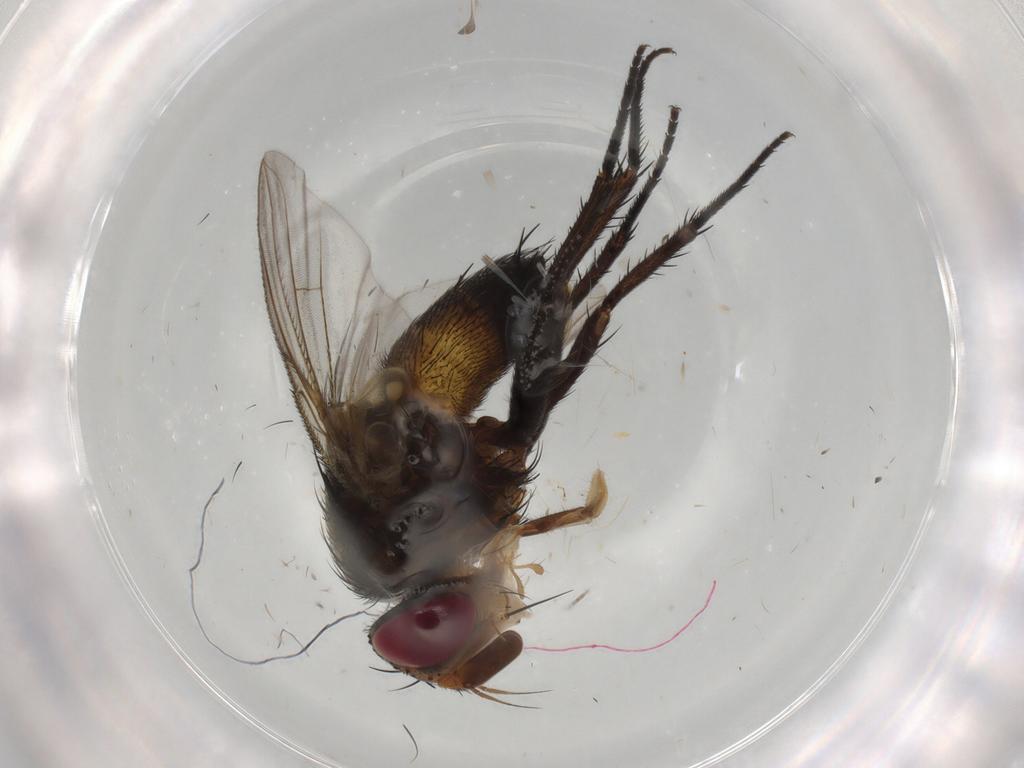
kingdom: Animalia
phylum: Arthropoda
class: Insecta
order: Diptera
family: Glossinidae
